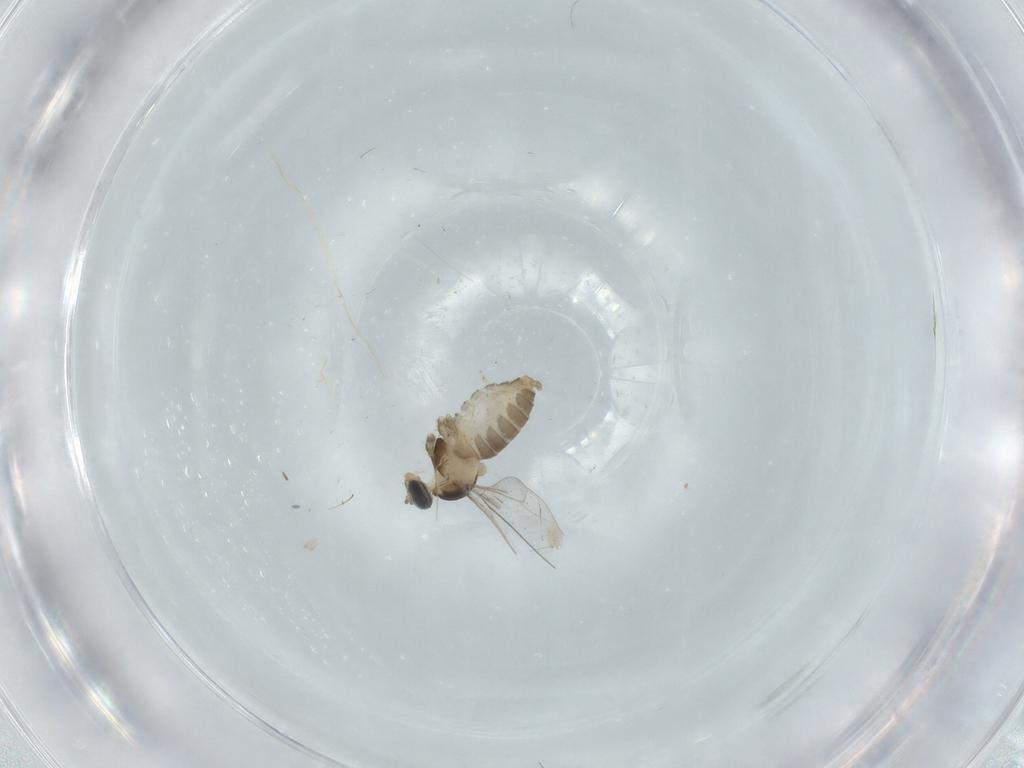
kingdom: Animalia
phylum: Arthropoda
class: Insecta
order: Diptera
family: Cecidomyiidae
